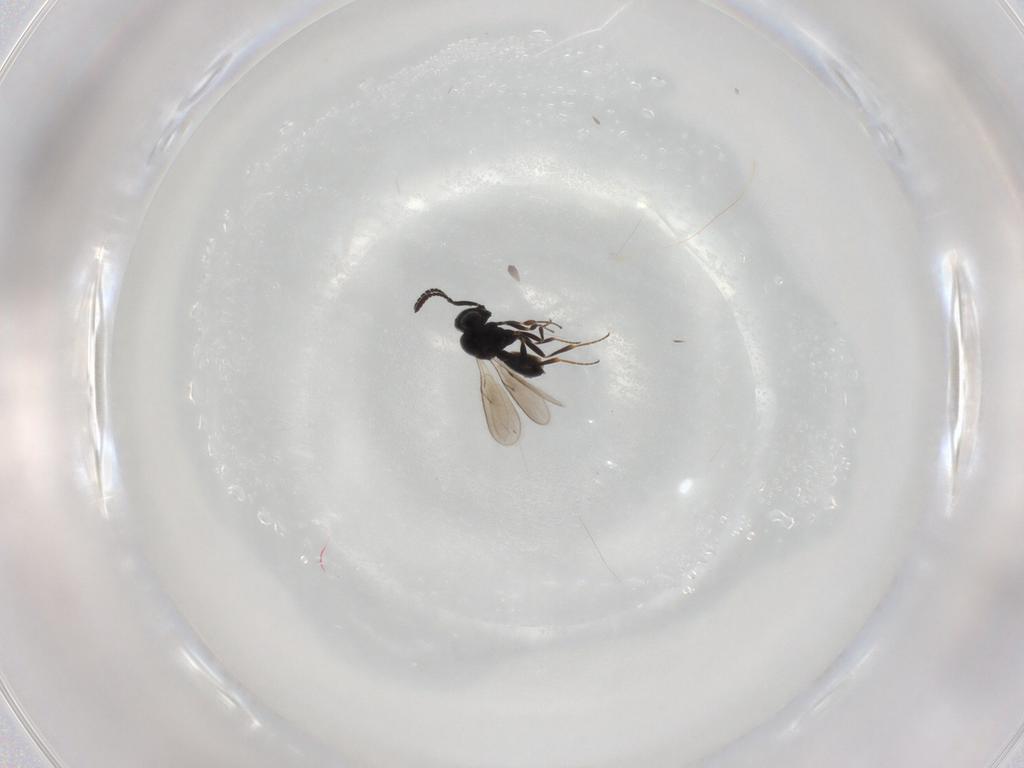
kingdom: Animalia
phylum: Arthropoda
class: Insecta
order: Hymenoptera
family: Scelionidae
